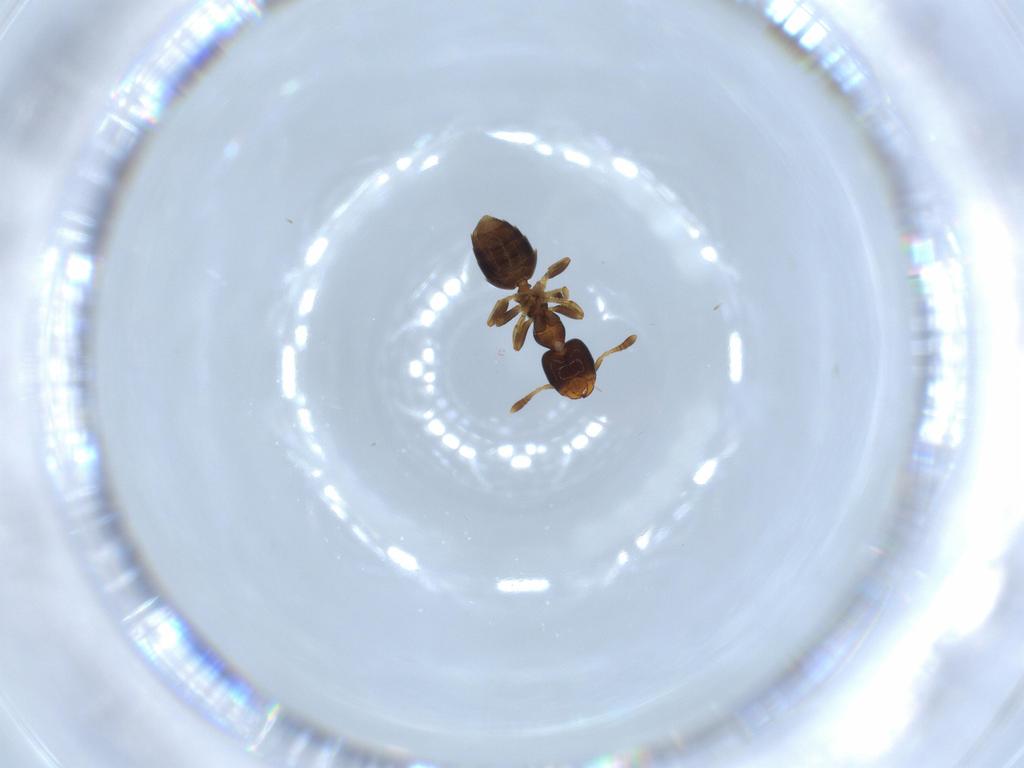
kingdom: Animalia
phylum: Arthropoda
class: Insecta
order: Hymenoptera
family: Formicidae
